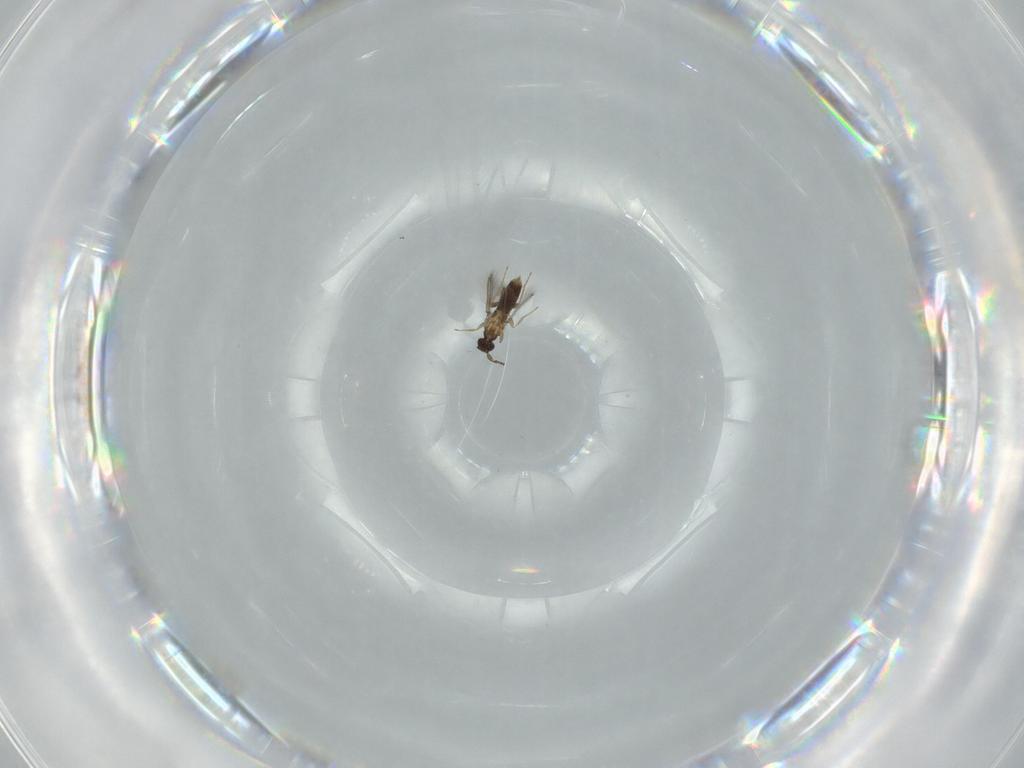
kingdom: Animalia
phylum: Arthropoda
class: Insecta
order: Hymenoptera
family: Mymaridae
